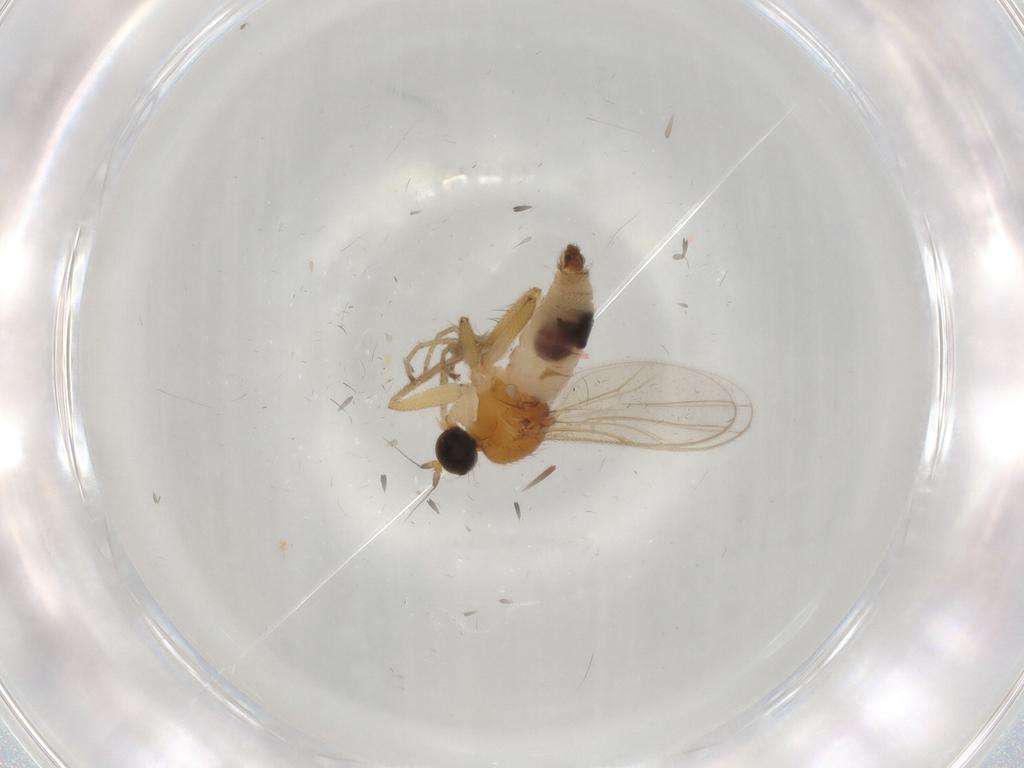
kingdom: Animalia
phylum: Arthropoda
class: Insecta
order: Diptera
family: Hybotidae
